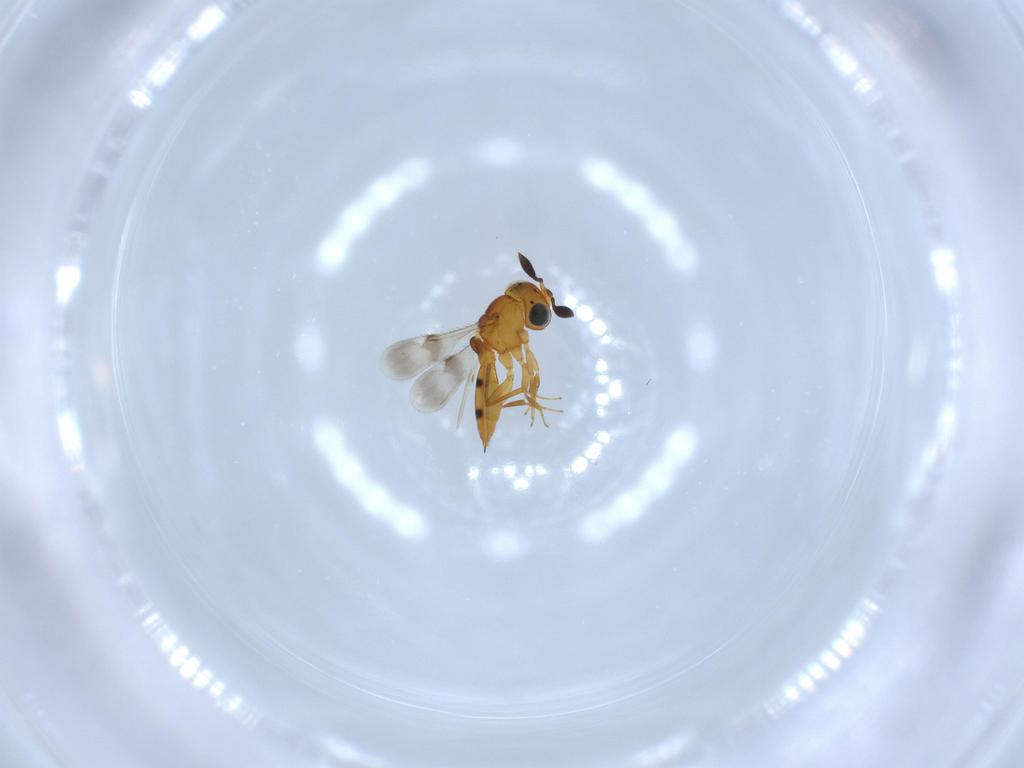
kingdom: Animalia
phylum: Arthropoda
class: Insecta
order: Hymenoptera
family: Scelionidae
